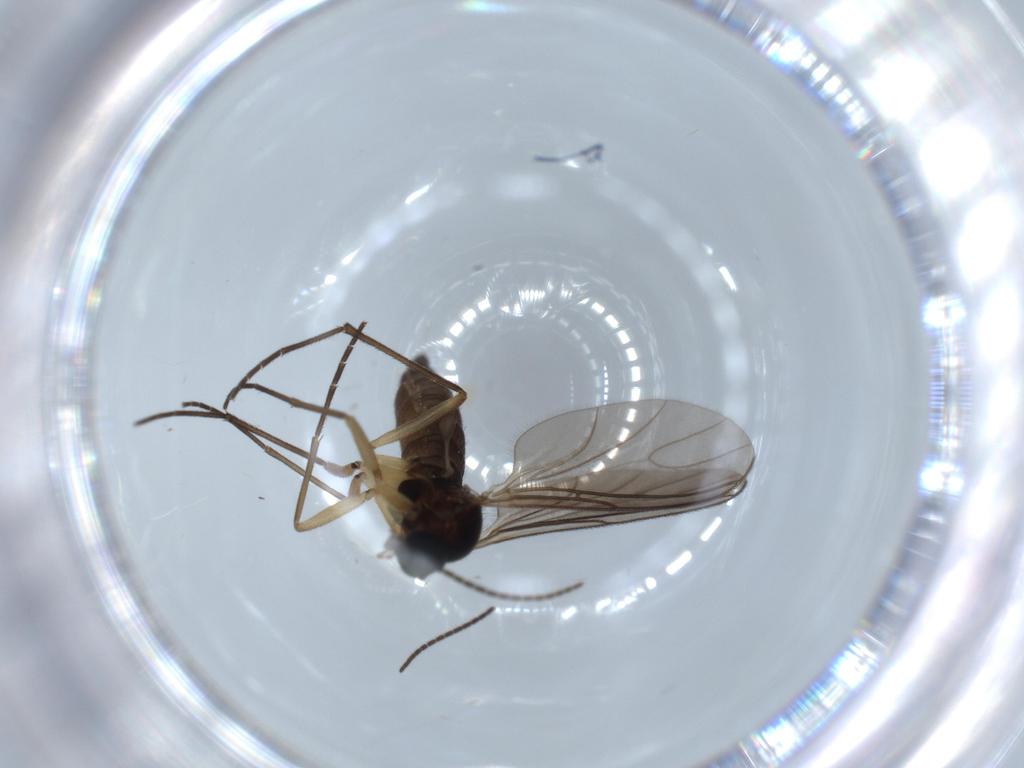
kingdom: Animalia
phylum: Arthropoda
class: Insecta
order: Diptera
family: Sciaridae
